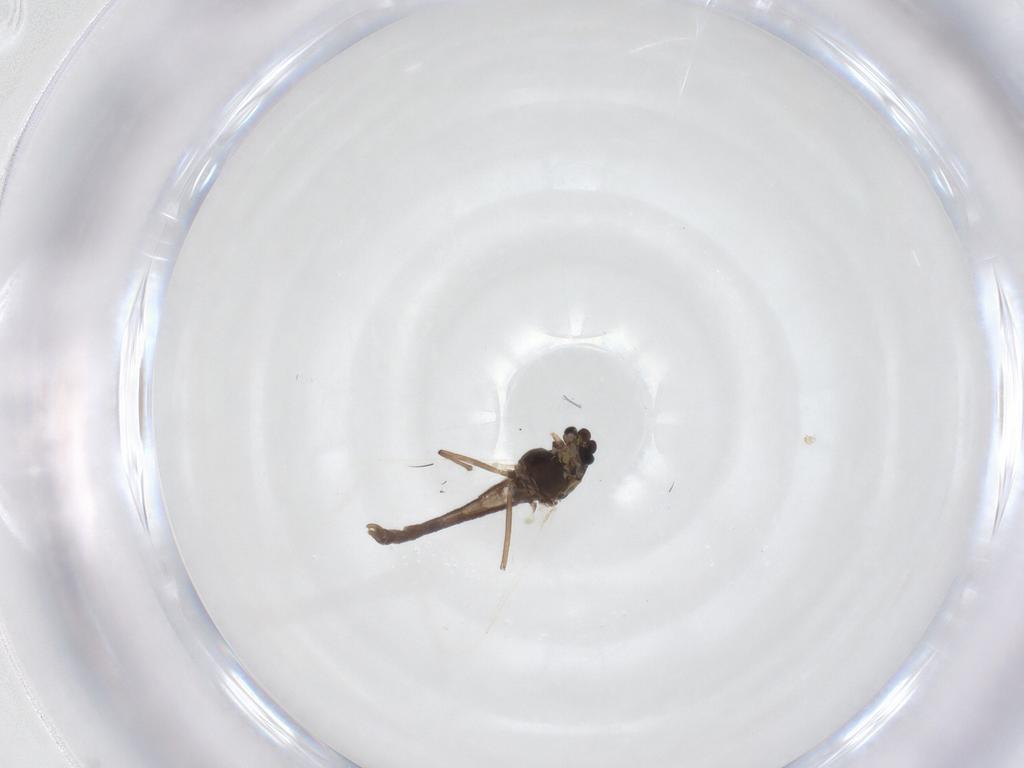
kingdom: Animalia
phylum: Arthropoda
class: Insecta
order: Diptera
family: Chironomidae
